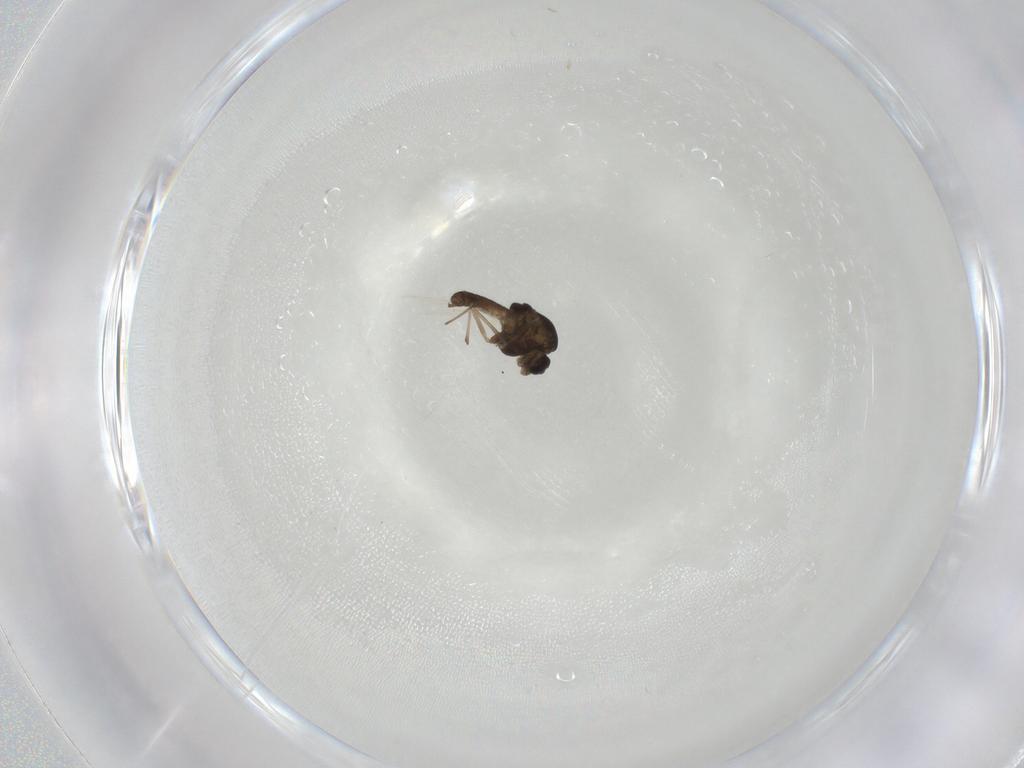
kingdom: Animalia
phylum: Arthropoda
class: Insecta
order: Diptera
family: Chironomidae
